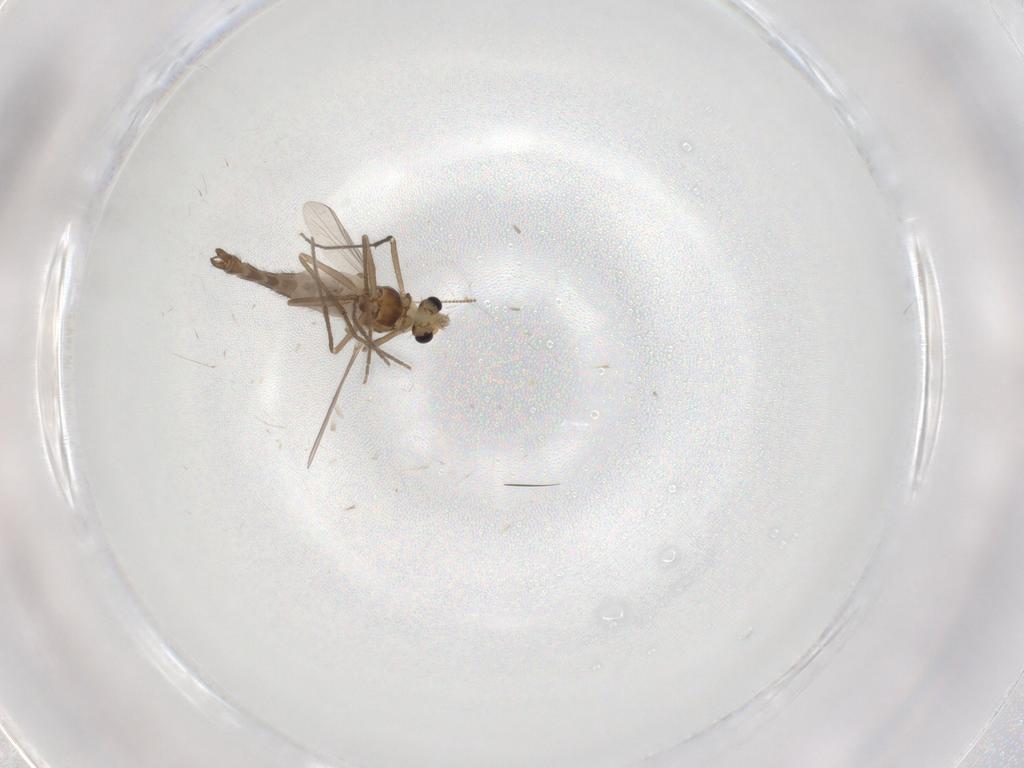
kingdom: Animalia
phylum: Arthropoda
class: Insecta
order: Diptera
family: Chironomidae
